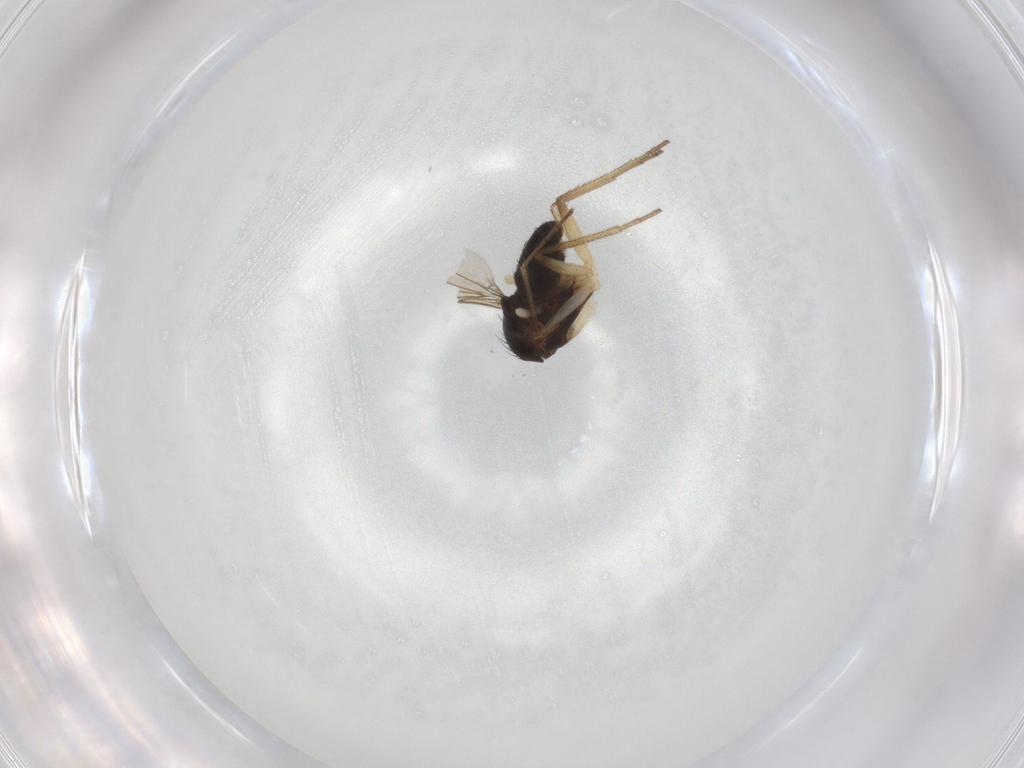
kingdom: Animalia
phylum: Arthropoda
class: Insecta
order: Diptera
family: Dolichopodidae
